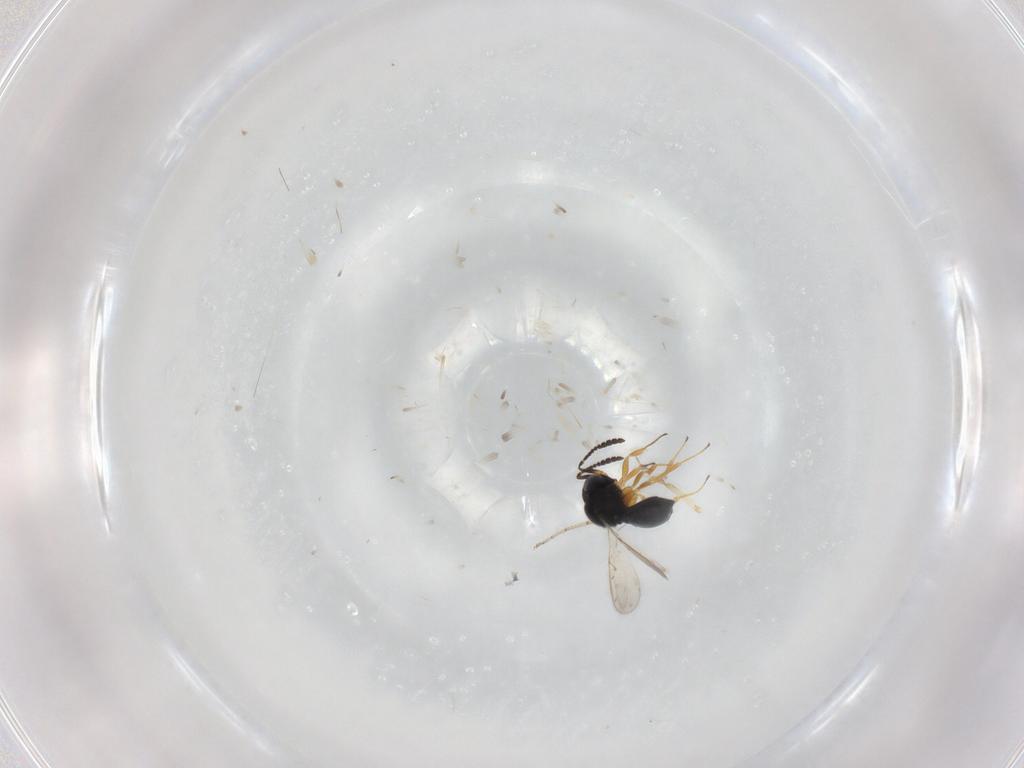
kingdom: Animalia
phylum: Arthropoda
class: Insecta
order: Hymenoptera
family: Scelionidae
